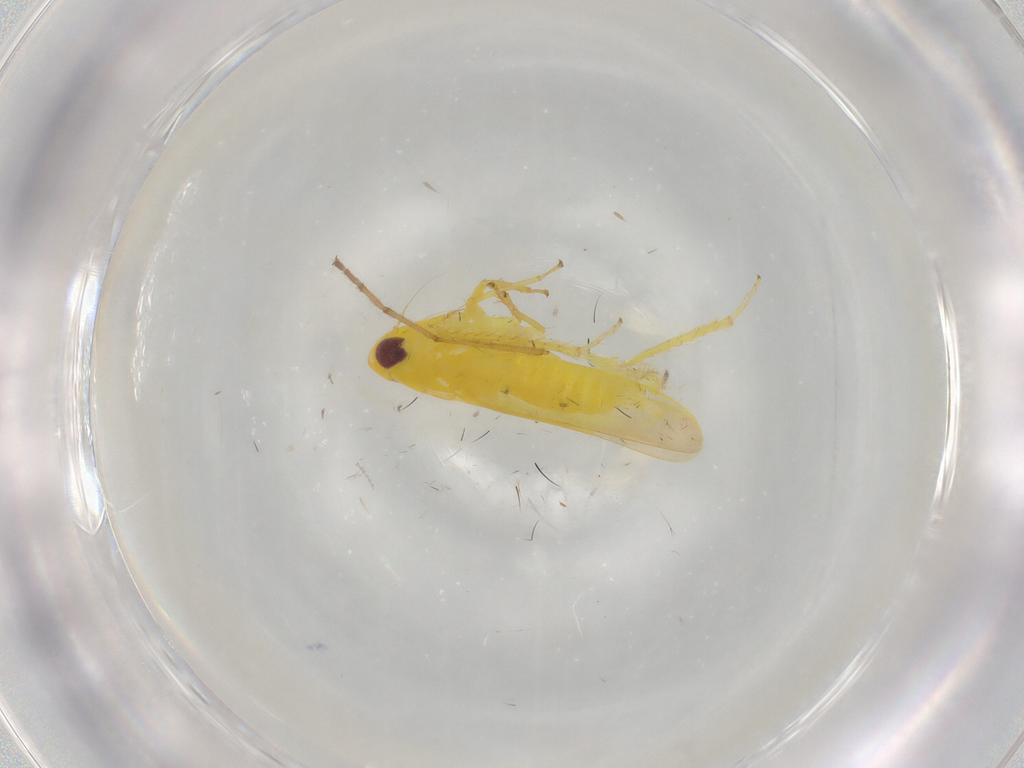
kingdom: Animalia
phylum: Arthropoda
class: Insecta
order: Hemiptera
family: Cicadellidae
